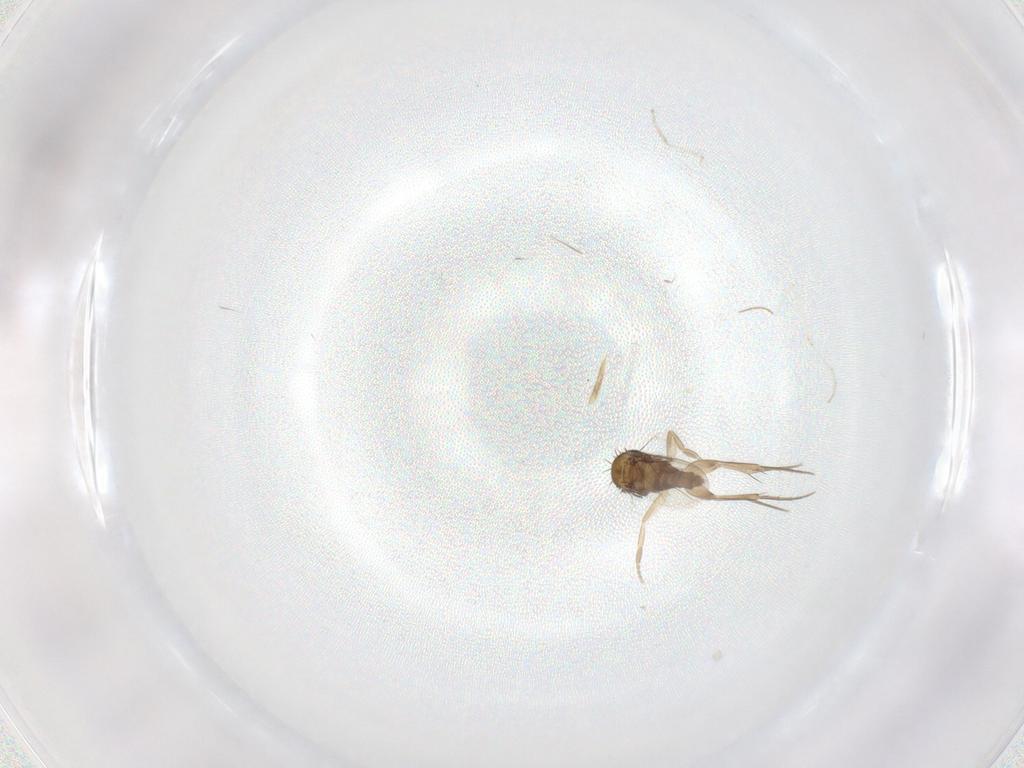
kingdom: Animalia
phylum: Arthropoda
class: Insecta
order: Diptera
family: Phoridae
